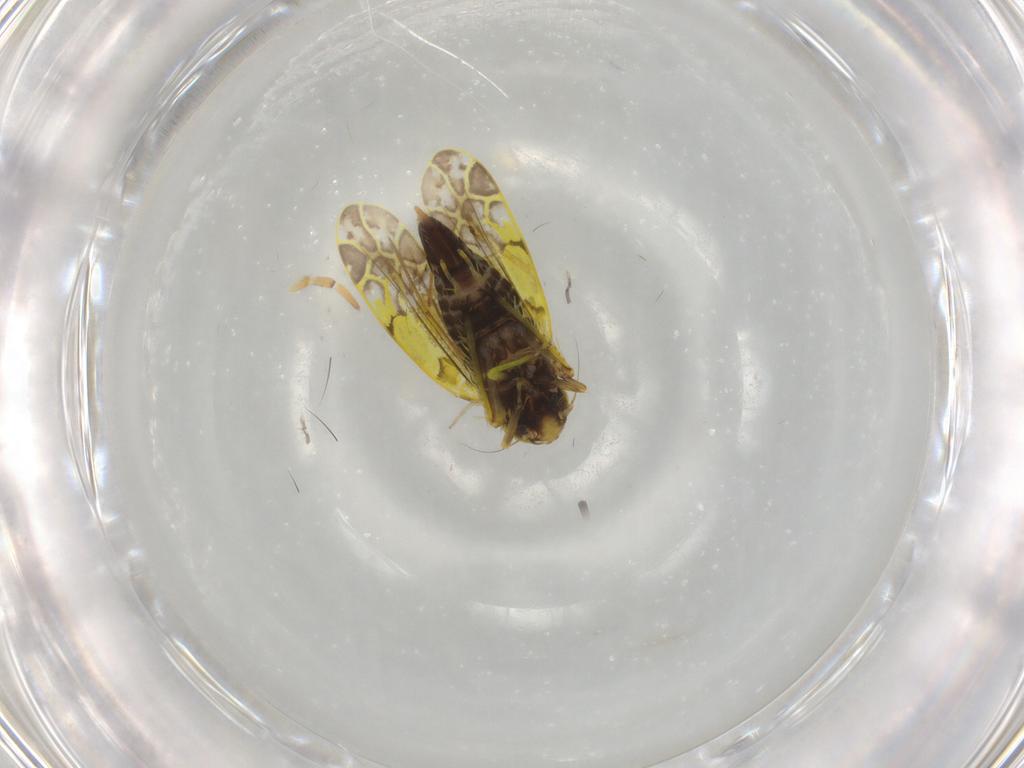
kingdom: Animalia
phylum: Arthropoda
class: Insecta
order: Hemiptera
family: Cicadellidae
